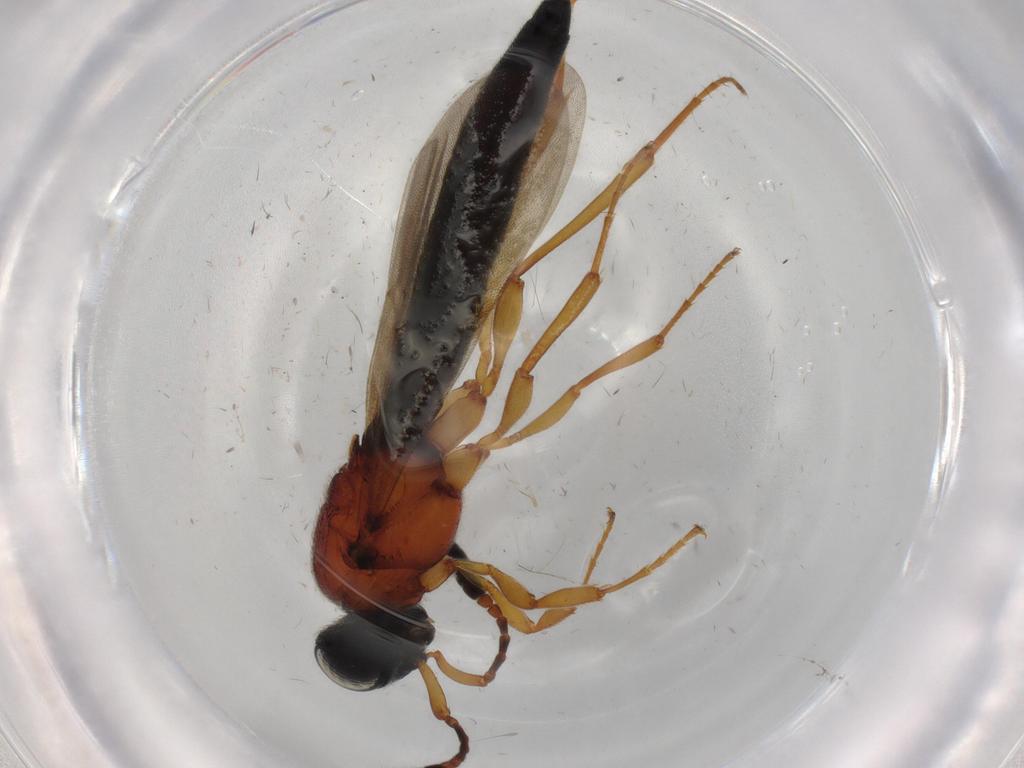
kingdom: Animalia
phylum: Arthropoda
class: Insecta
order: Hymenoptera
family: Scelionidae
